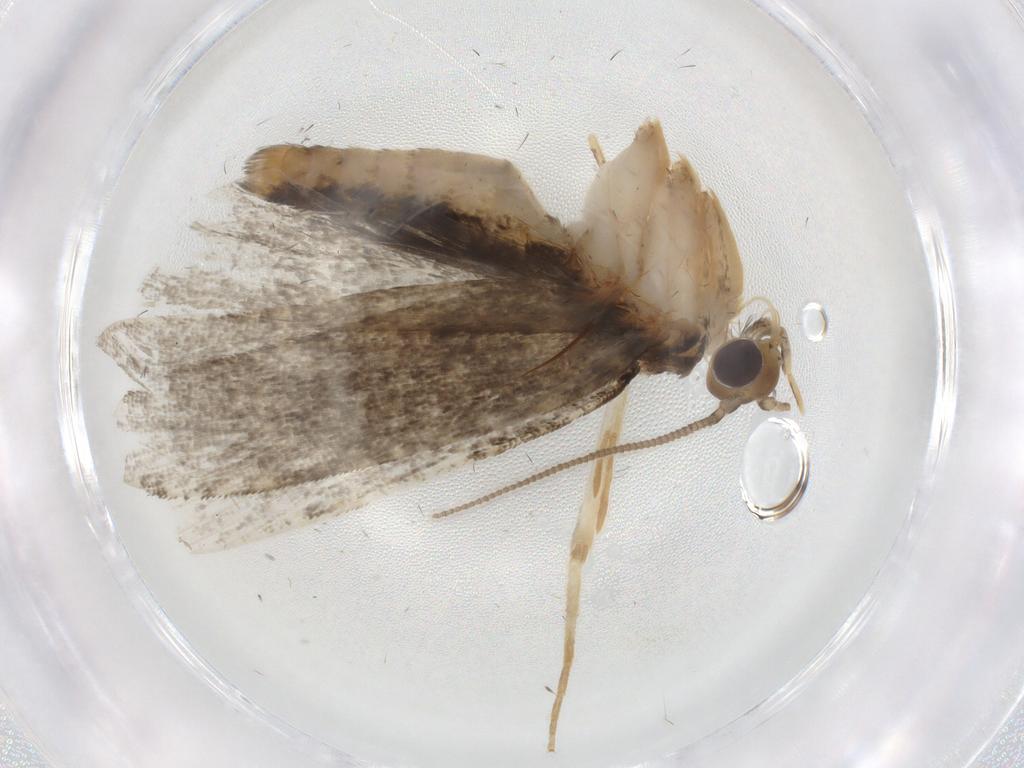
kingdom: Animalia
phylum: Arthropoda
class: Insecta
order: Lepidoptera
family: Tineidae
